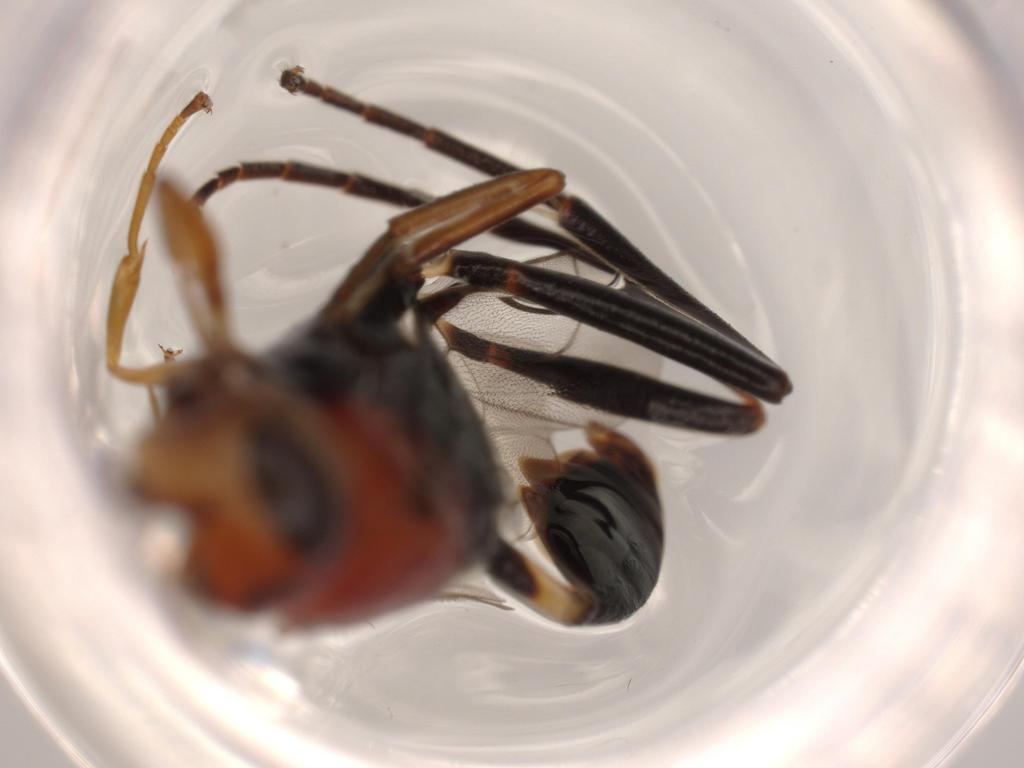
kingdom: Animalia
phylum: Arthropoda
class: Insecta
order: Hymenoptera
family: Evaniidae
